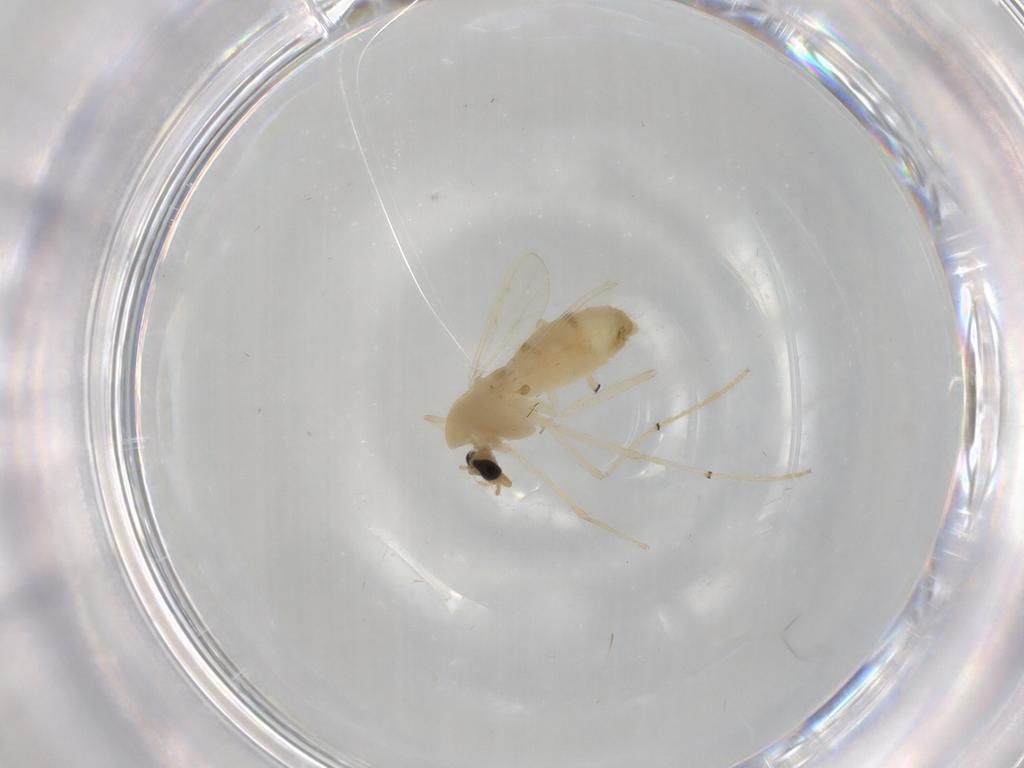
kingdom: Animalia
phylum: Arthropoda
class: Insecta
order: Diptera
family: Chironomidae
